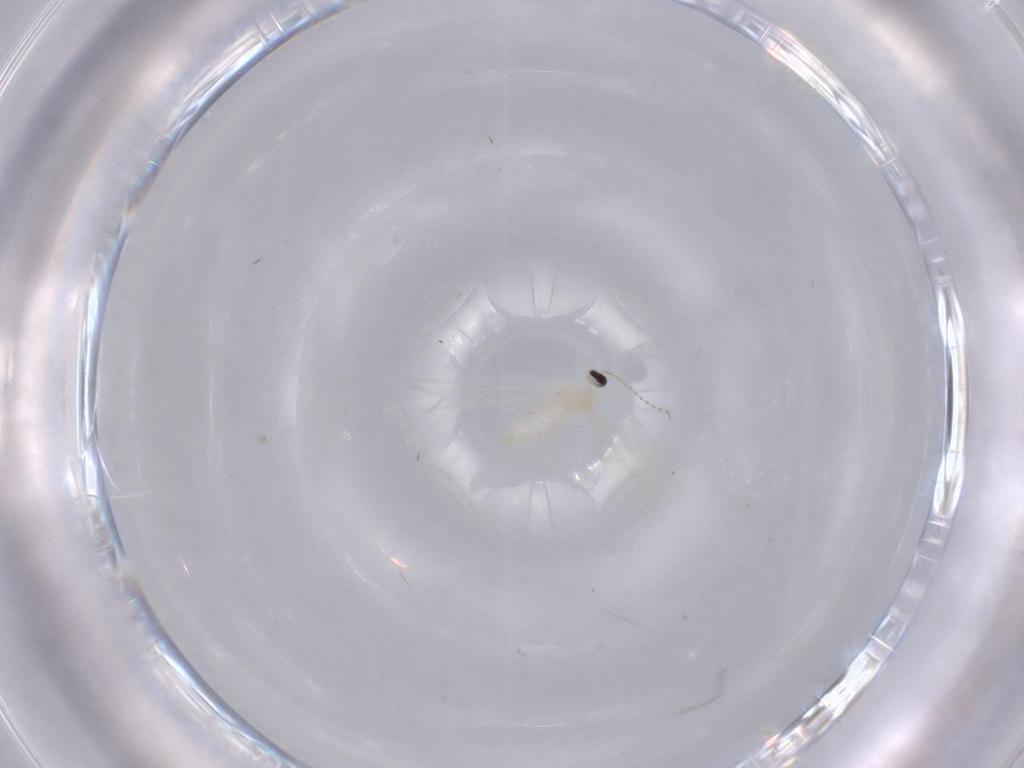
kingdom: Animalia
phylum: Arthropoda
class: Insecta
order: Diptera
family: Cecidomyiidae
